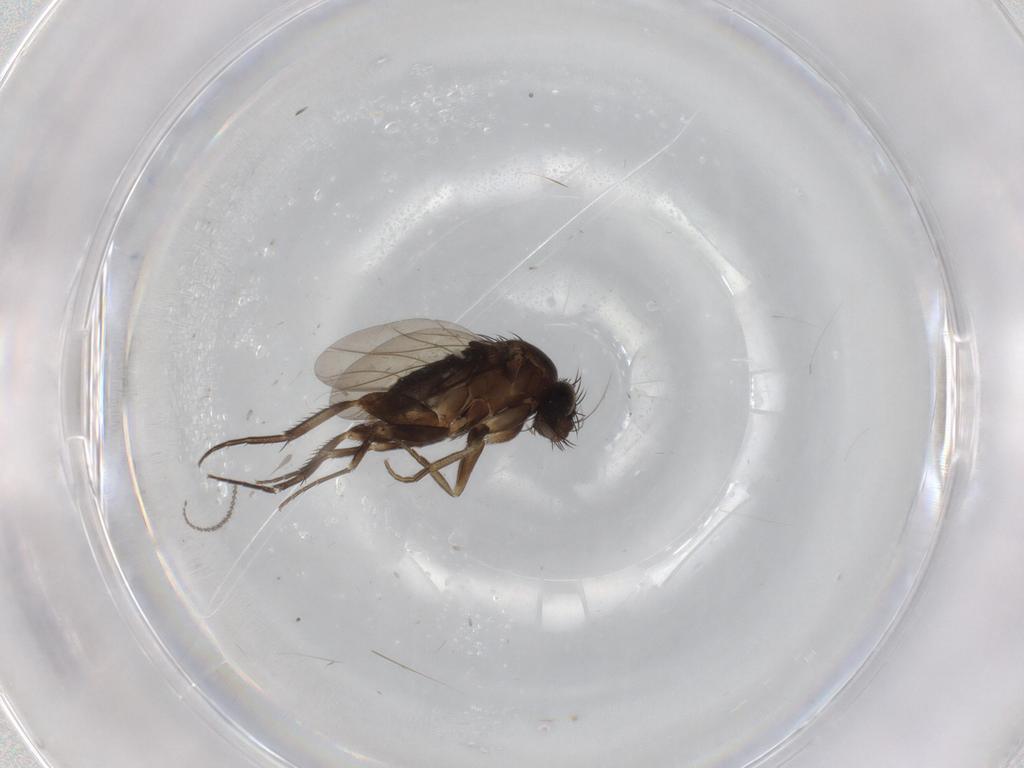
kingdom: Animalia
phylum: Arthropoda
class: Insecta
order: Diptera
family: Phoridae
